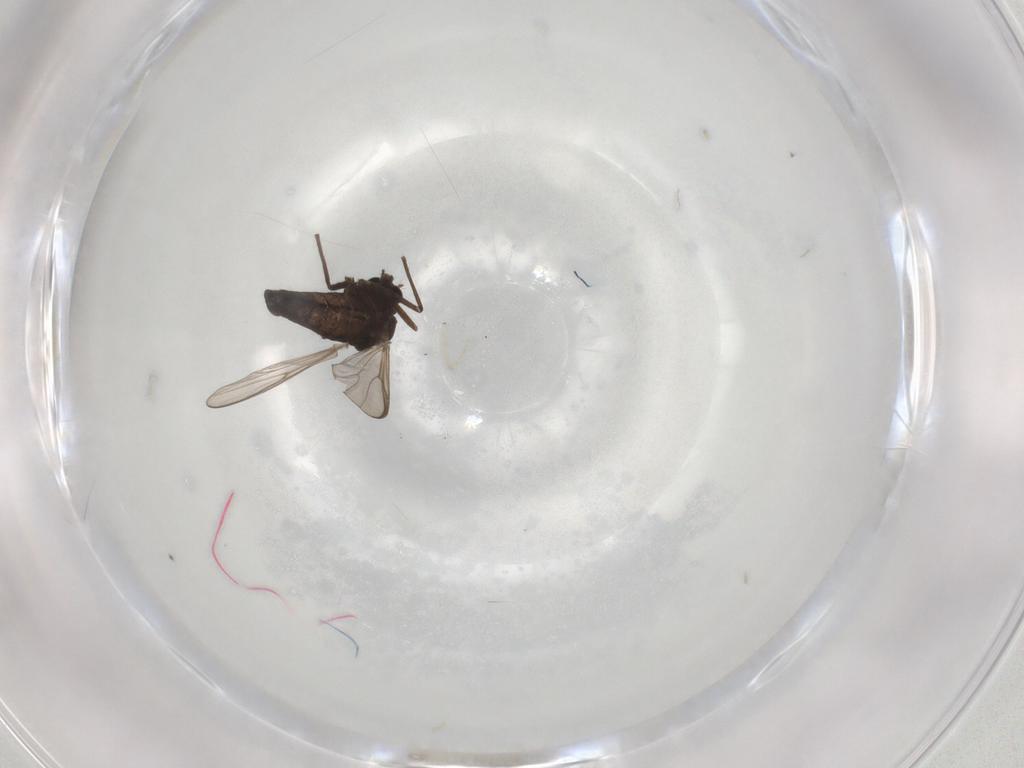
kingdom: Animalia
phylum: Arthropoda
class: Insecta
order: Diptera
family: Chironomidae
